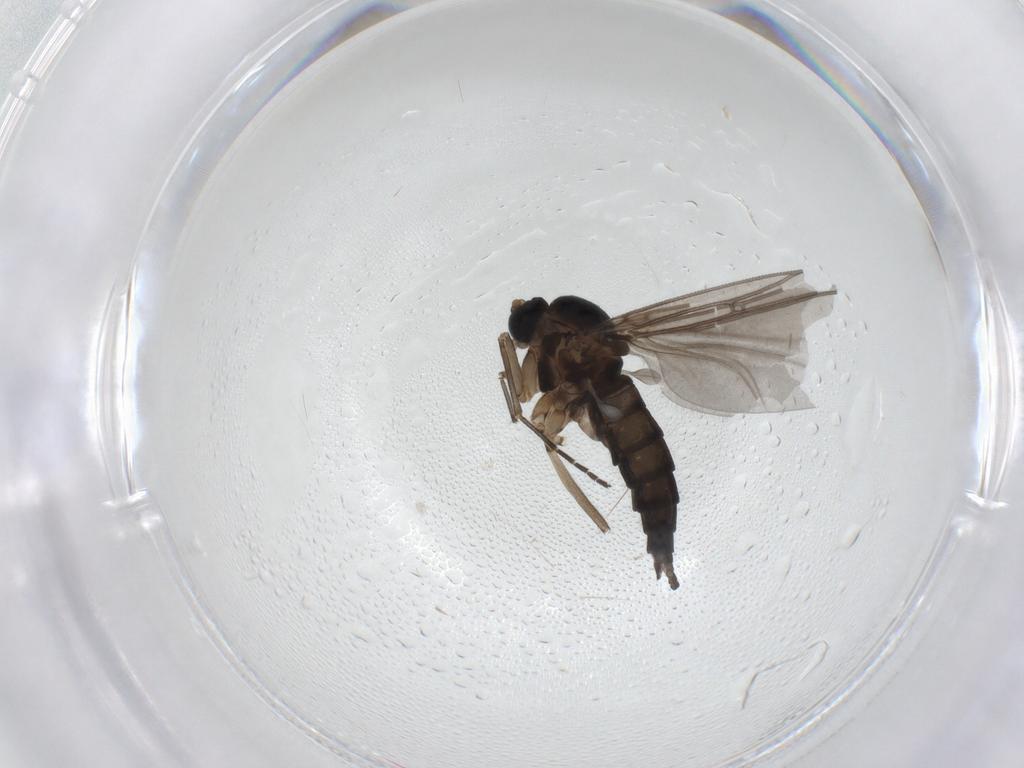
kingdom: Animalia
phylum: Arthropoda
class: Insecta
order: Diptera
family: Sciaridae
